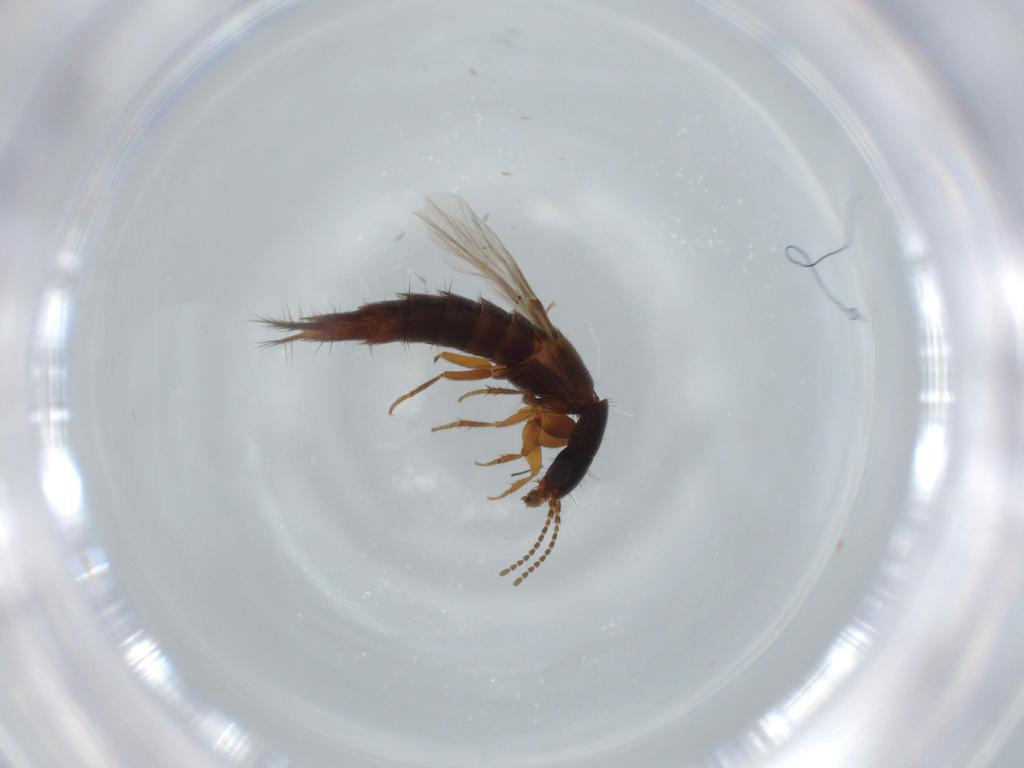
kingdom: Animalia
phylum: Arthropoda
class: Insecta
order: Coleoptera
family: Staphylinidae
